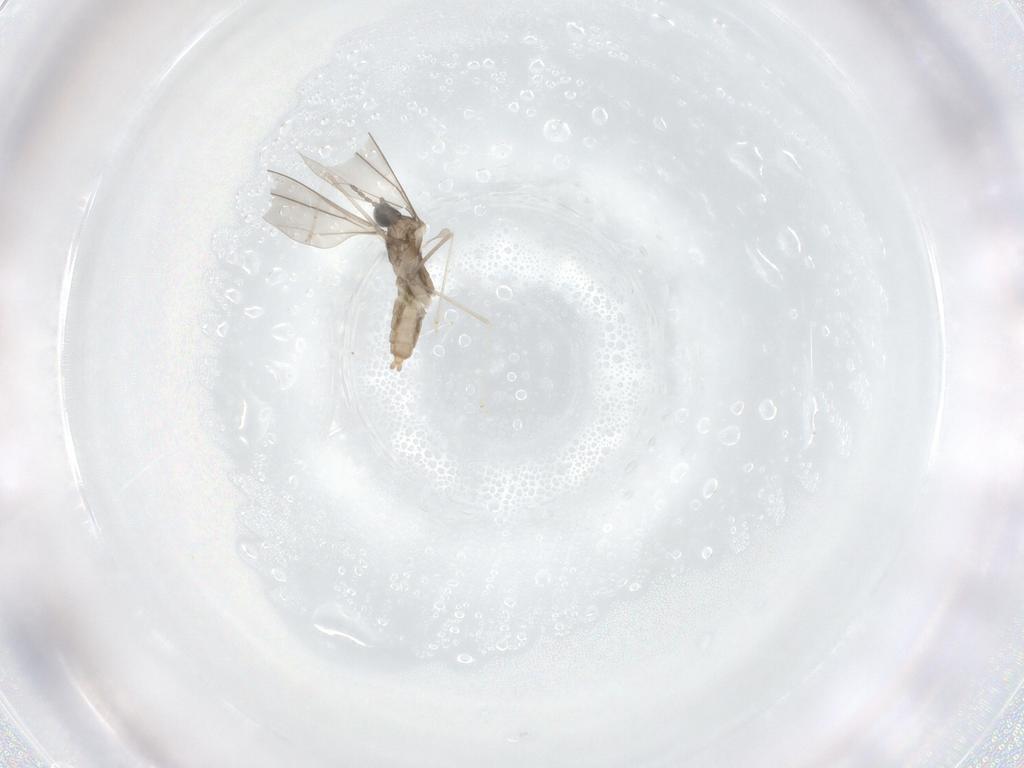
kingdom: Animalia
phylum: Arthropoda
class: Insecta
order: Diptera
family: Cecidomyiidae
